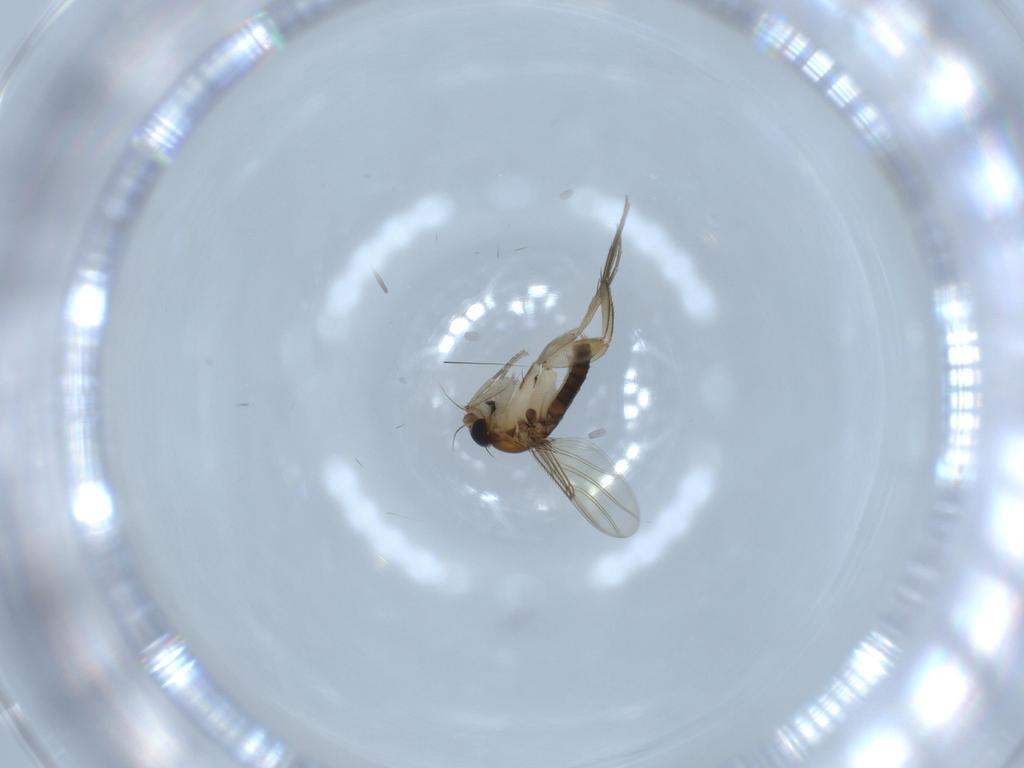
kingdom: Animalia
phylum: Arthropoda
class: Insecta
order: Diptera
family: Phoridae
